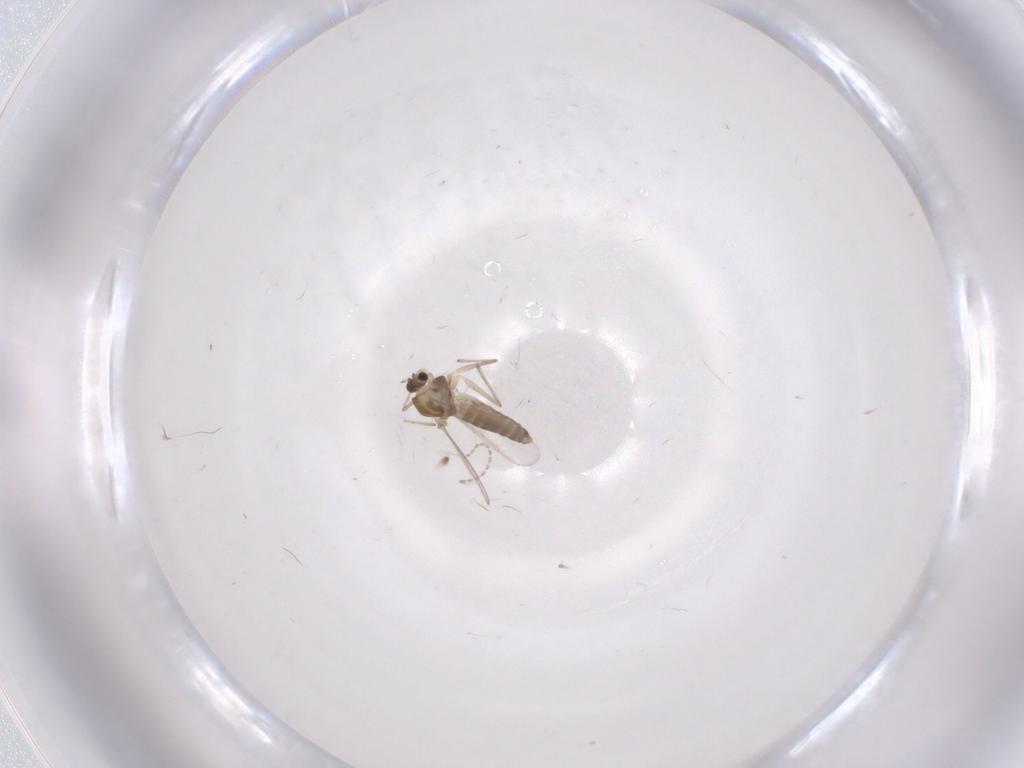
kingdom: Animalia
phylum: Arthropoda
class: Insecta
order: Diptera
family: Chironomidae
